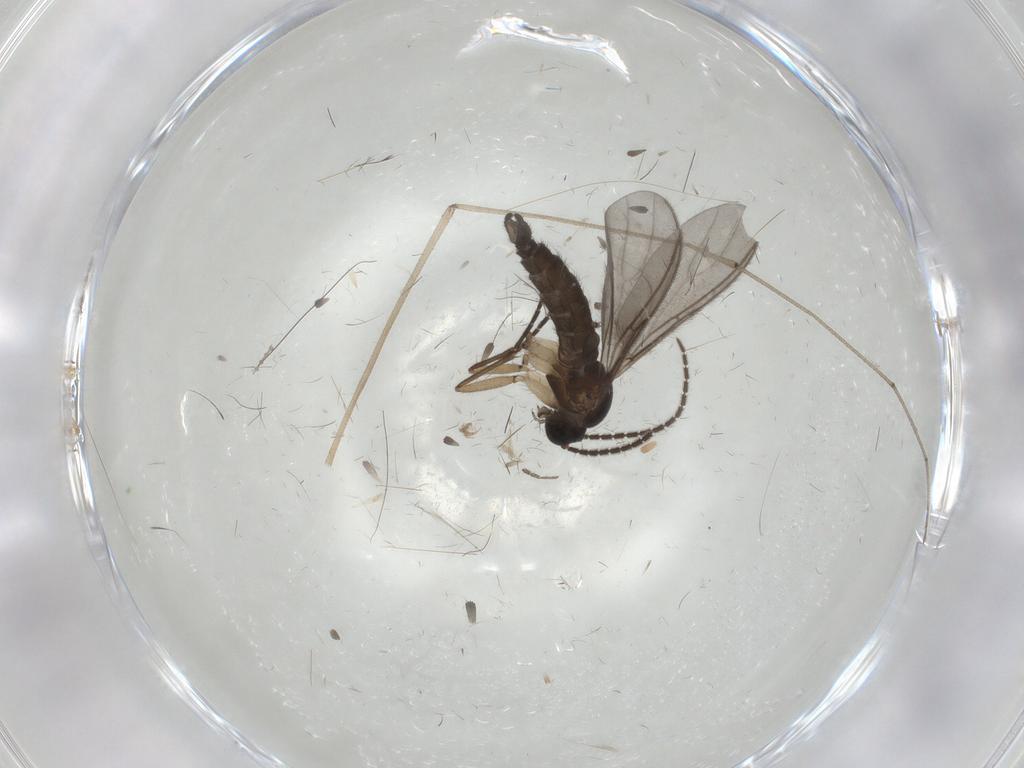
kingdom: Animalia
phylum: Arthropoda
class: Insecta
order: Diptera
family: Sciaridae
